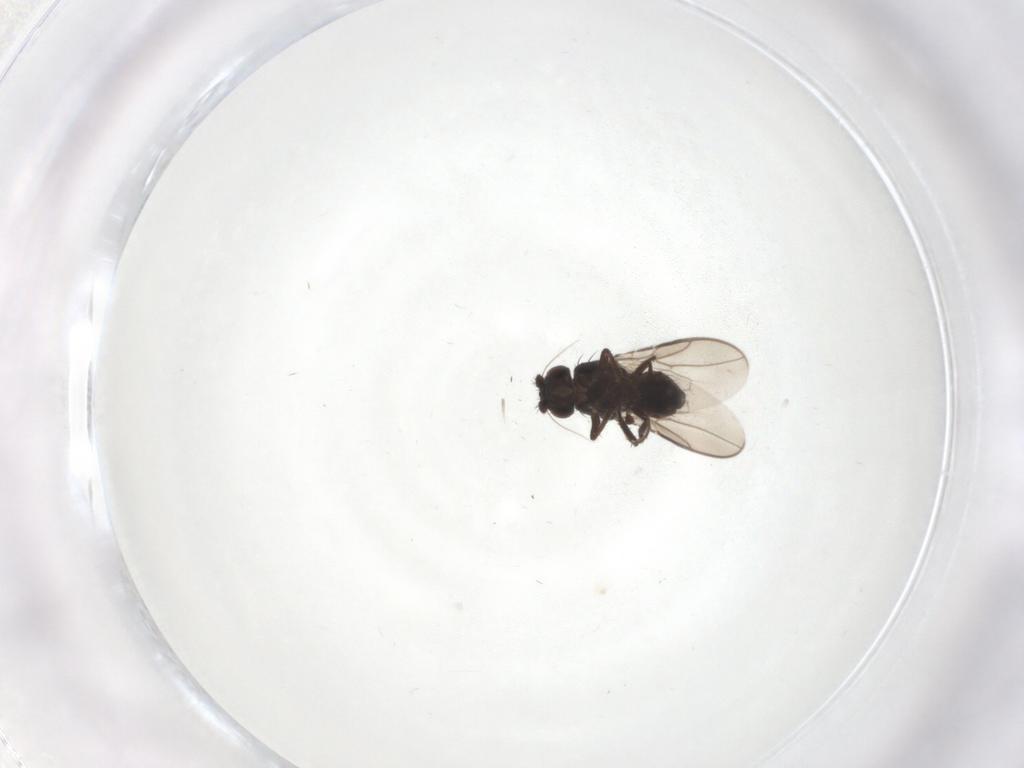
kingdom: Animalia
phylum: Arthropoda
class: Insecta
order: Diptera
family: Sphaeroceridae
